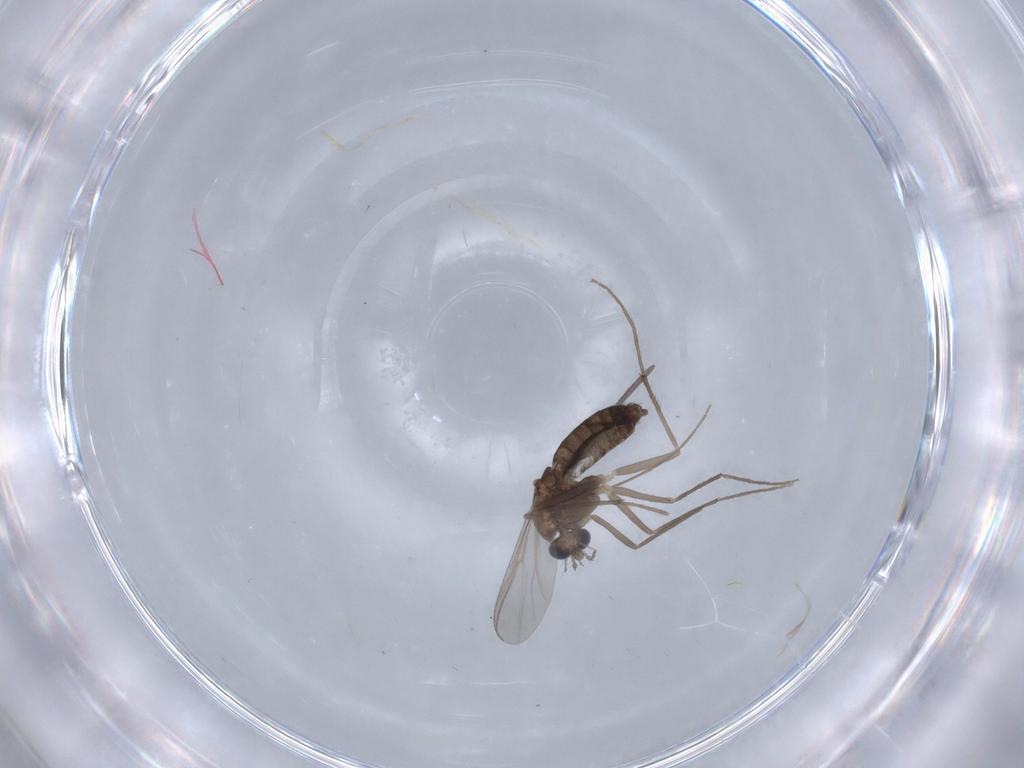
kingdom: Animalia
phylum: Arthropoda
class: Insecta
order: Diptera
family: Chironomidae
